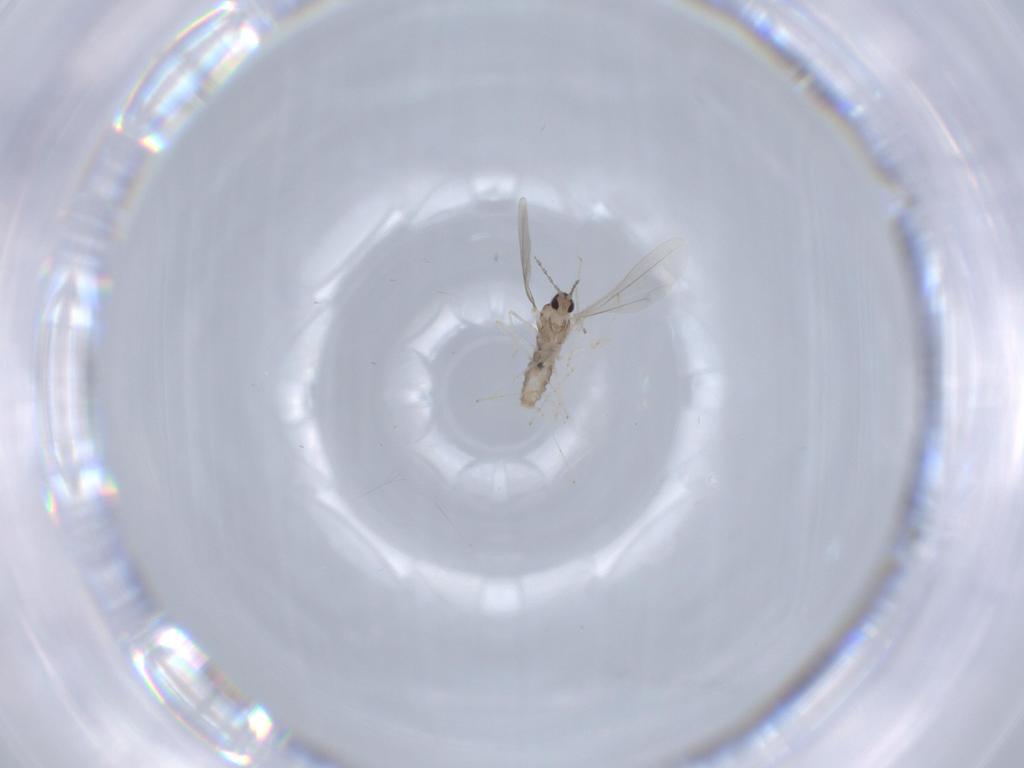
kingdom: Animalia
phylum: Arthropoda
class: Insecta
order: Diptera
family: Cecidomyiidae
